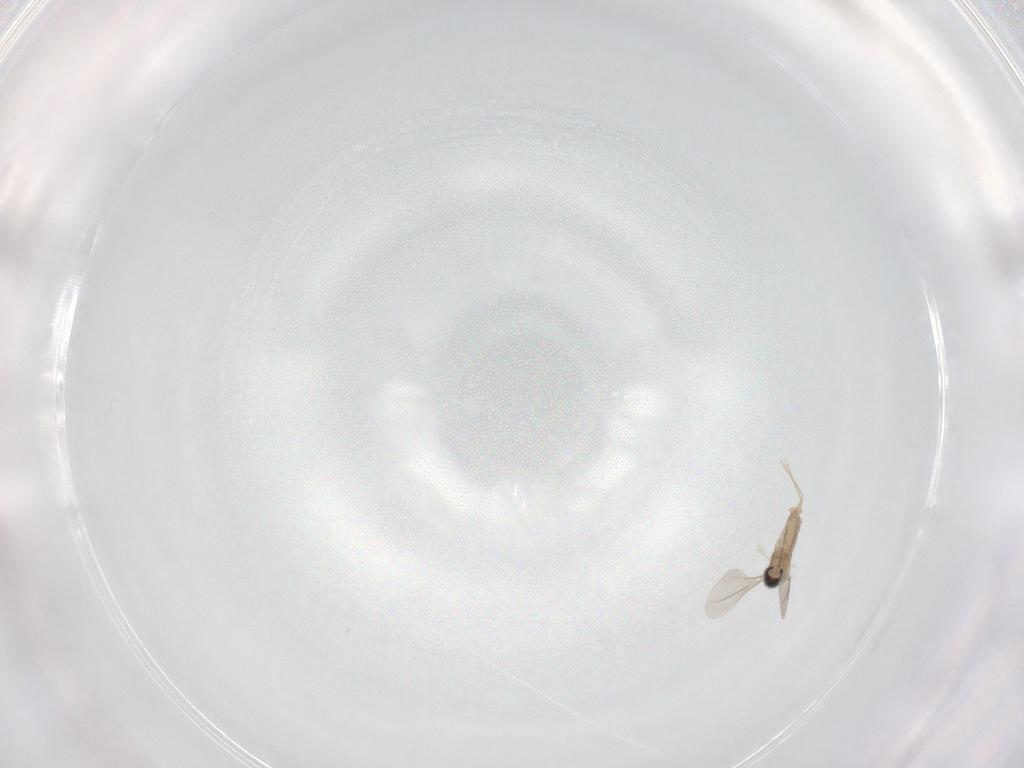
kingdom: Animalia
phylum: Arthropoda
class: Insecta
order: Diptera
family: Cecidomyiidae
